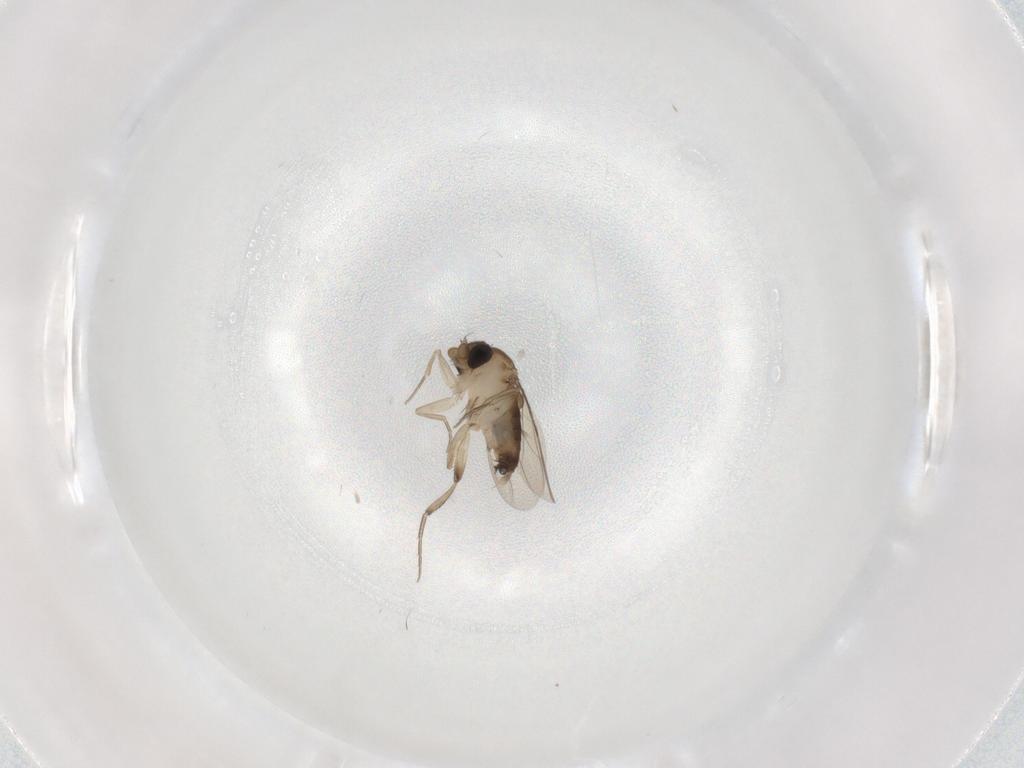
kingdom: Animalia
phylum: Arthropoda
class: Insecta
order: Diptera
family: Phoridae
